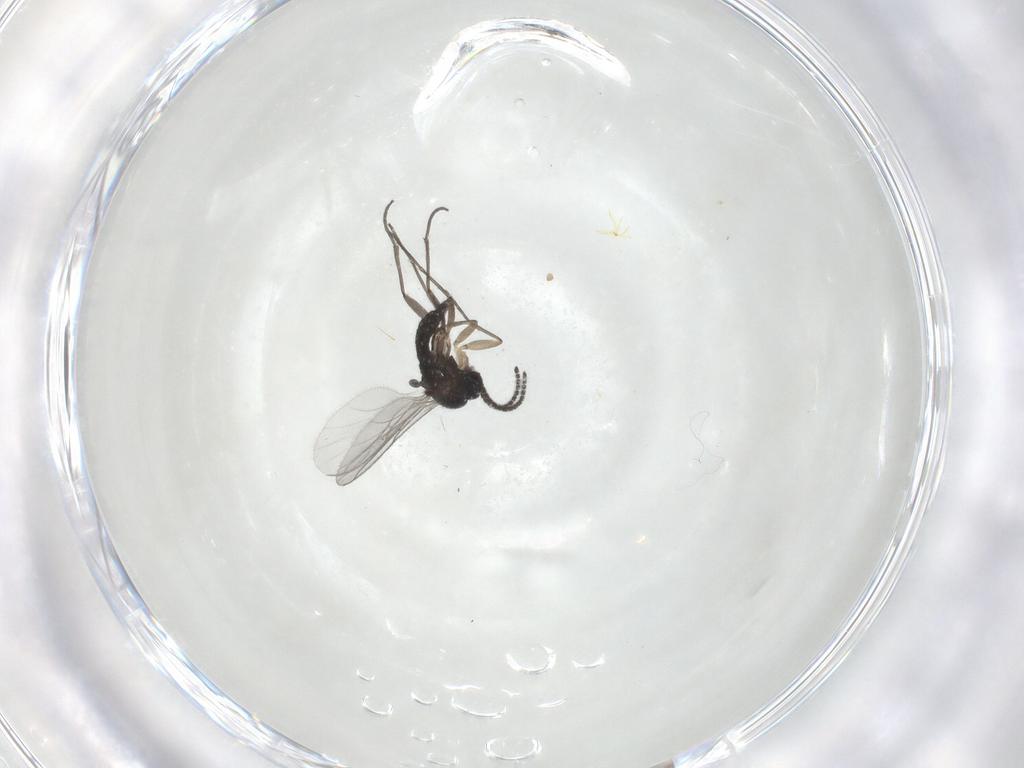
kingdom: Animalia
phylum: Arthropoda
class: Insecta
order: Diptera
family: Sciaridae
